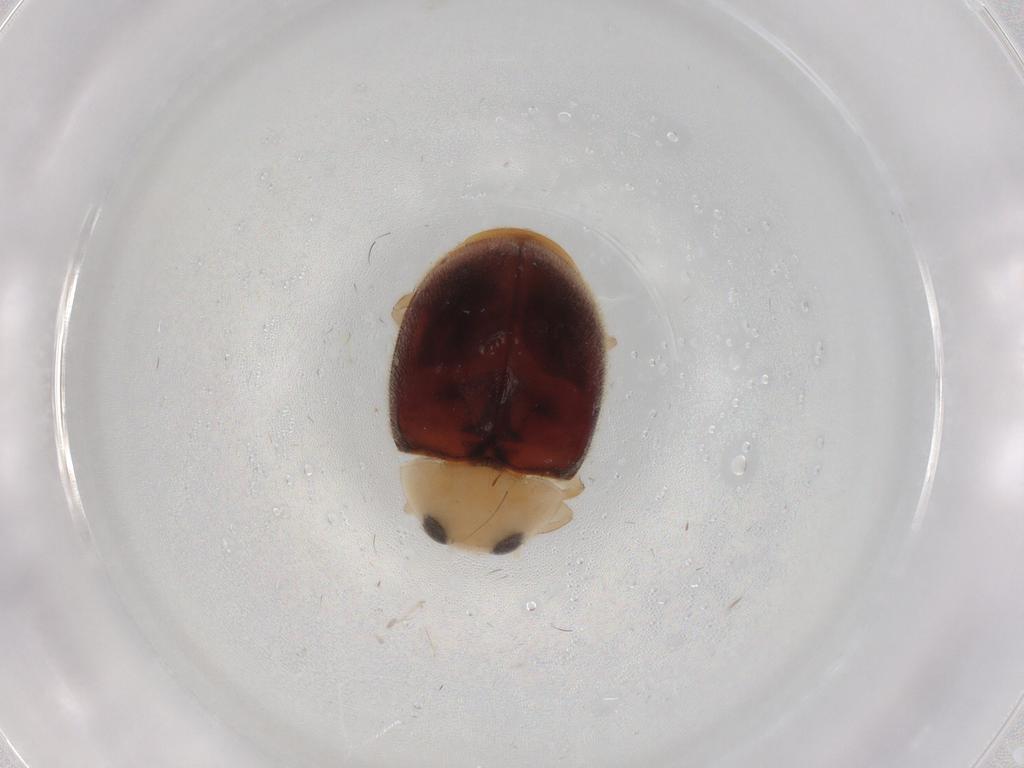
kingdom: Animalia
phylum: Arthropoda
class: Insecta
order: Coleoptera
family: Coccinellidae
